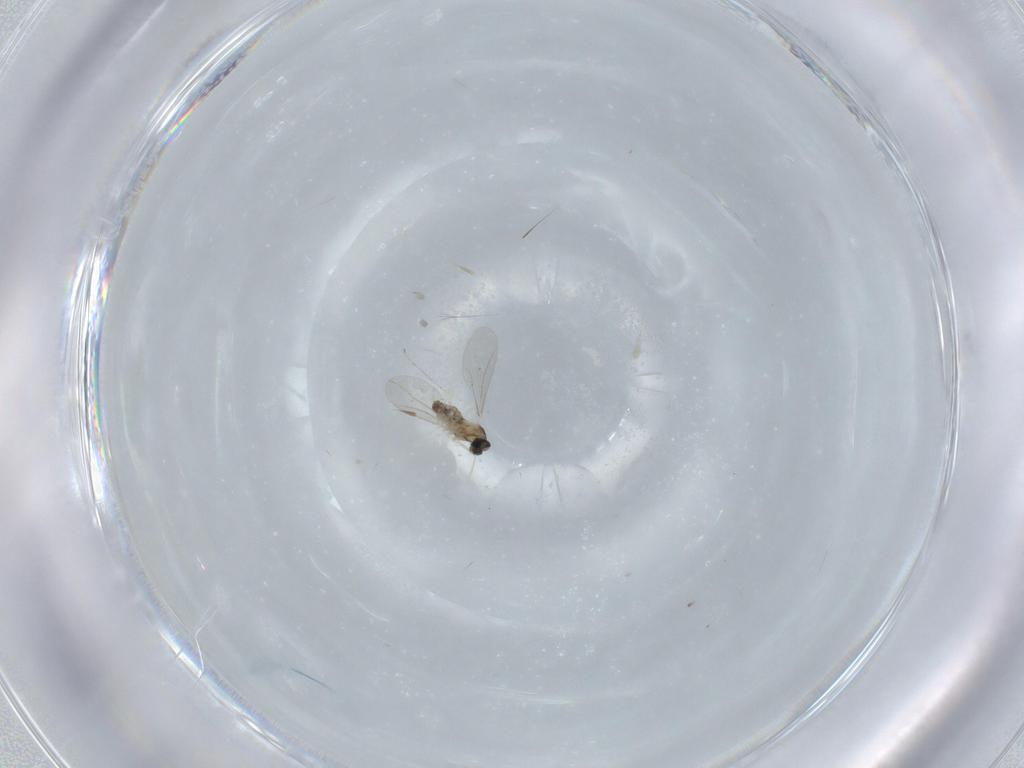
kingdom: Animalia
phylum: Arthropoda
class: Insecta
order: Diptera
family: Cecidomyiidae
